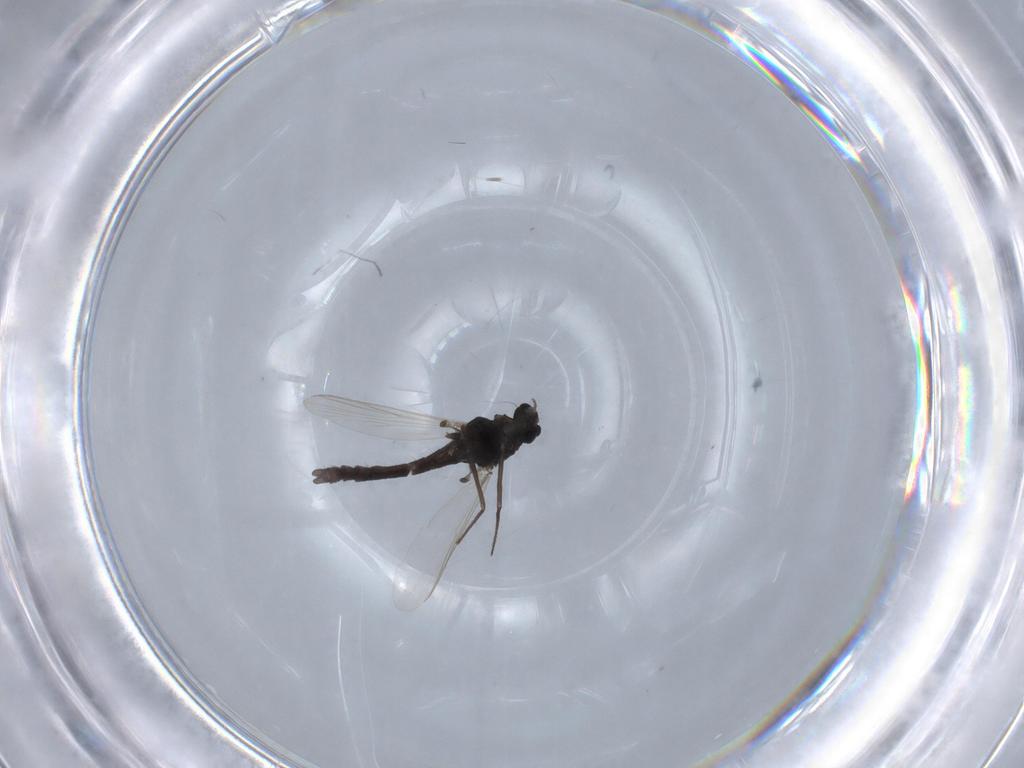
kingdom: Animalia
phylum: Arthropoda
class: Insecta
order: Diptera
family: Chironomidae
